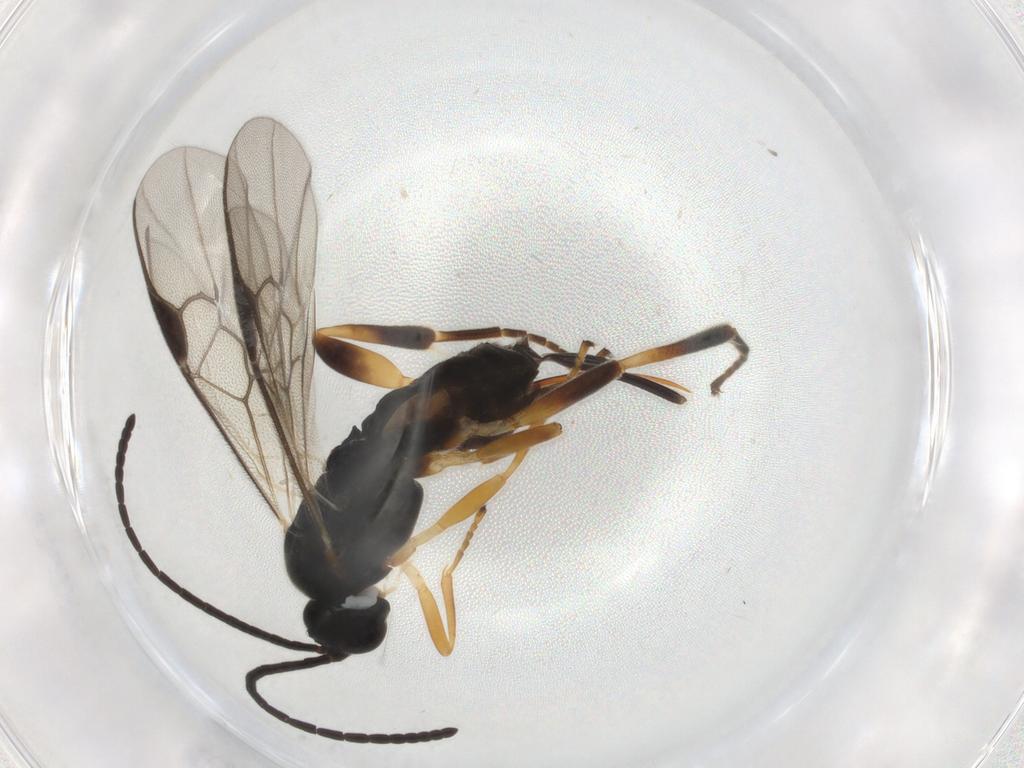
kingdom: Animalia
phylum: Arthropoda
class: Insecta
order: Hymenoptera
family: Braconidae
